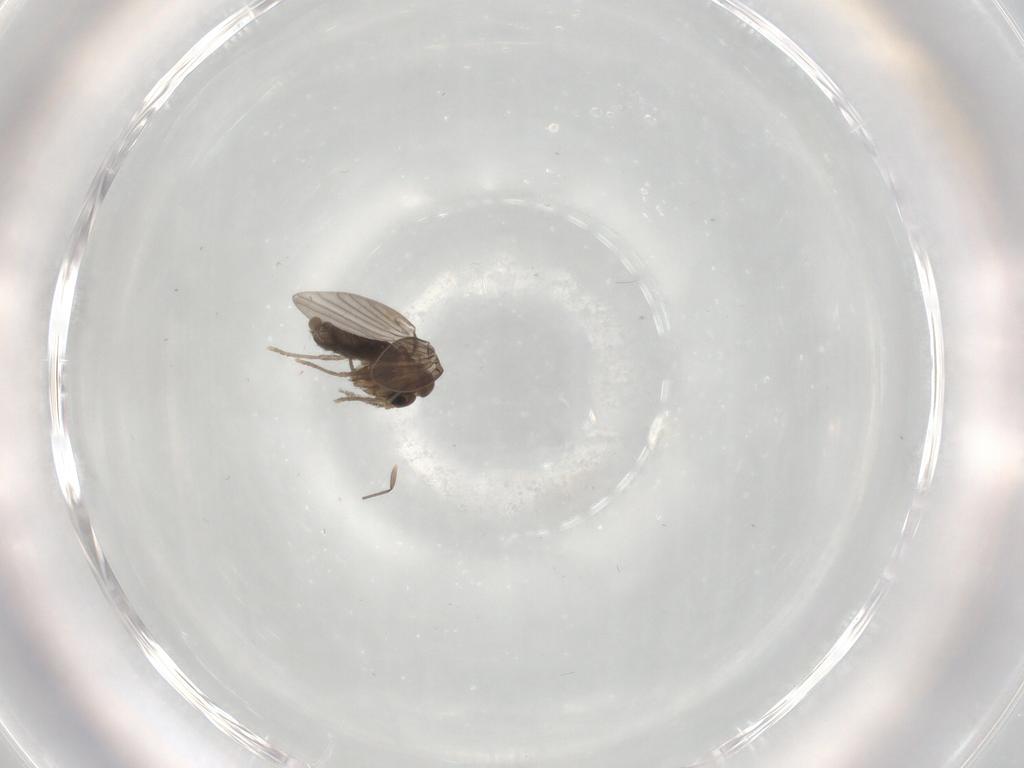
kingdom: Animalia
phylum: Arthropoda
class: Insecta
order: Diptera
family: Psychodidae
